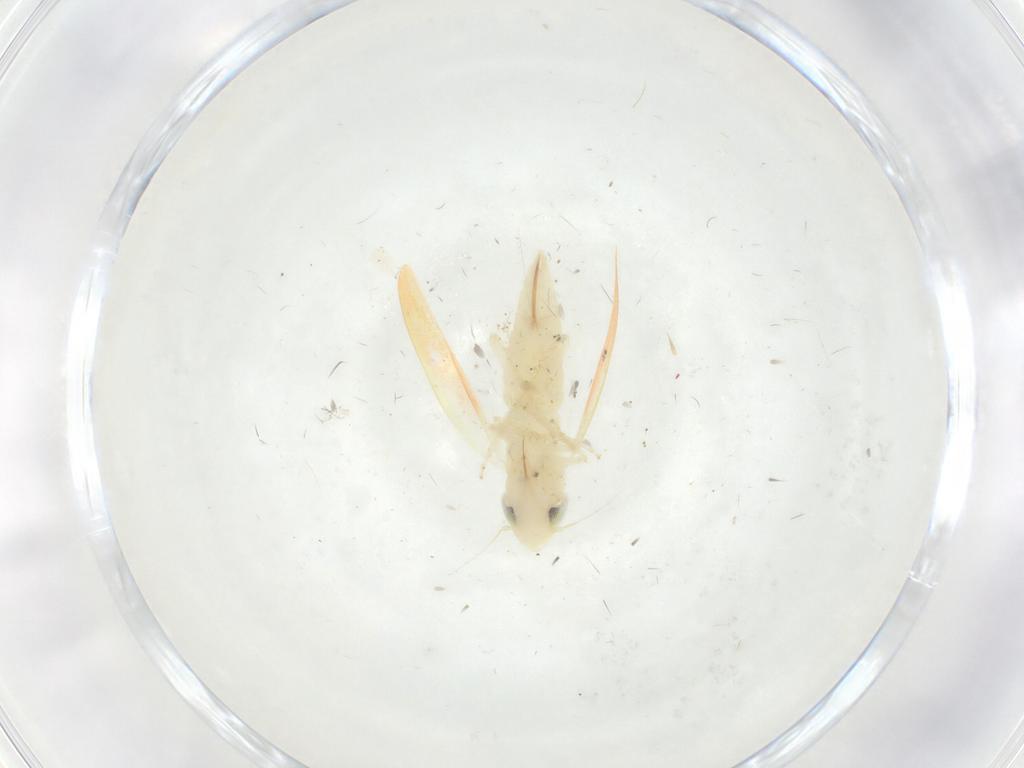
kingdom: Animalia
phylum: Arthropoda
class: Insecta
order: Hemiptera
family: Cicadellidae
